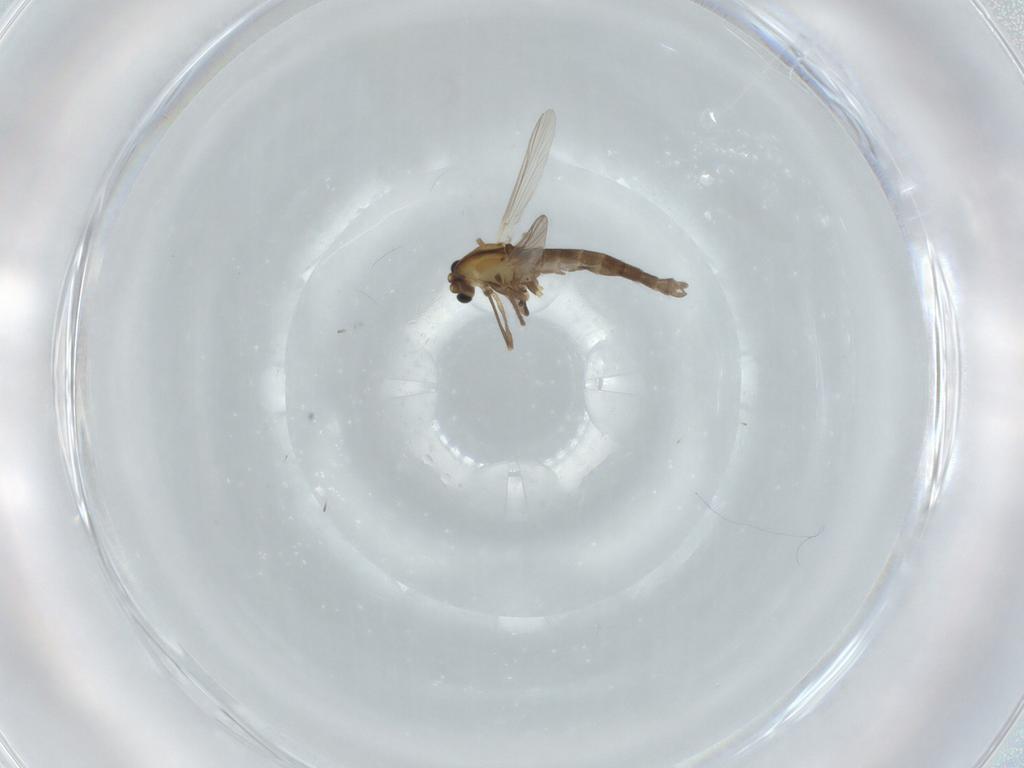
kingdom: Animalia
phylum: Arthropoda
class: Insecta
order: Diptera
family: Chironomidae
